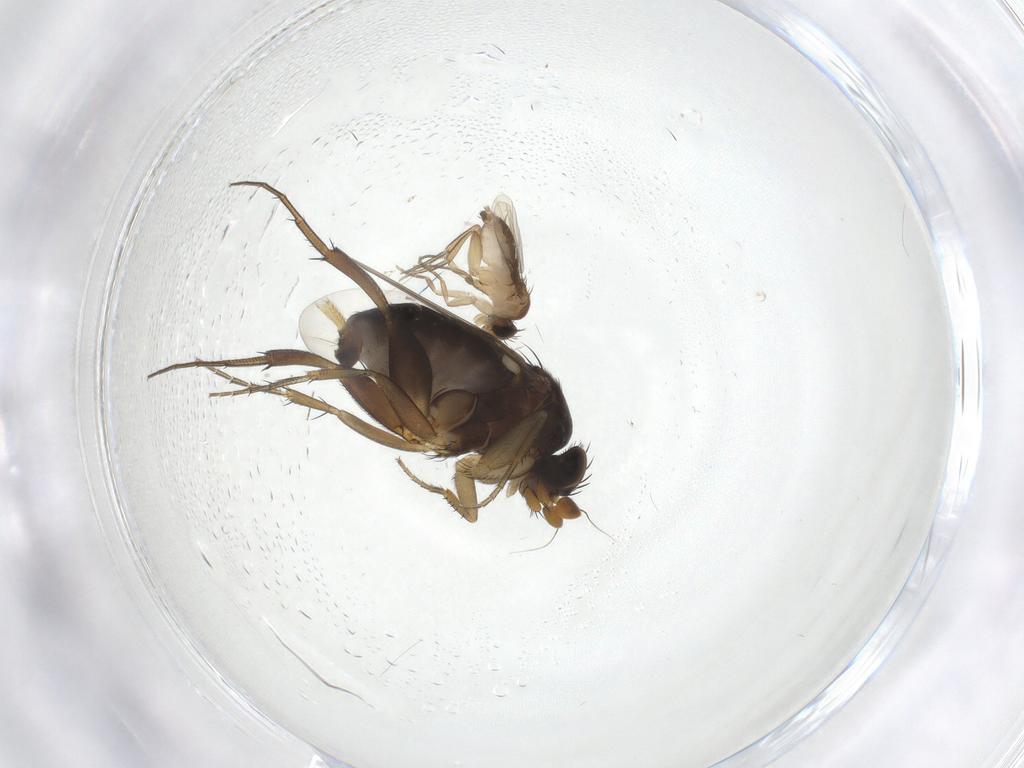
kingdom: Animalia
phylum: Arthropoda
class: Insecta
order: Diptera
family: Phoridae
